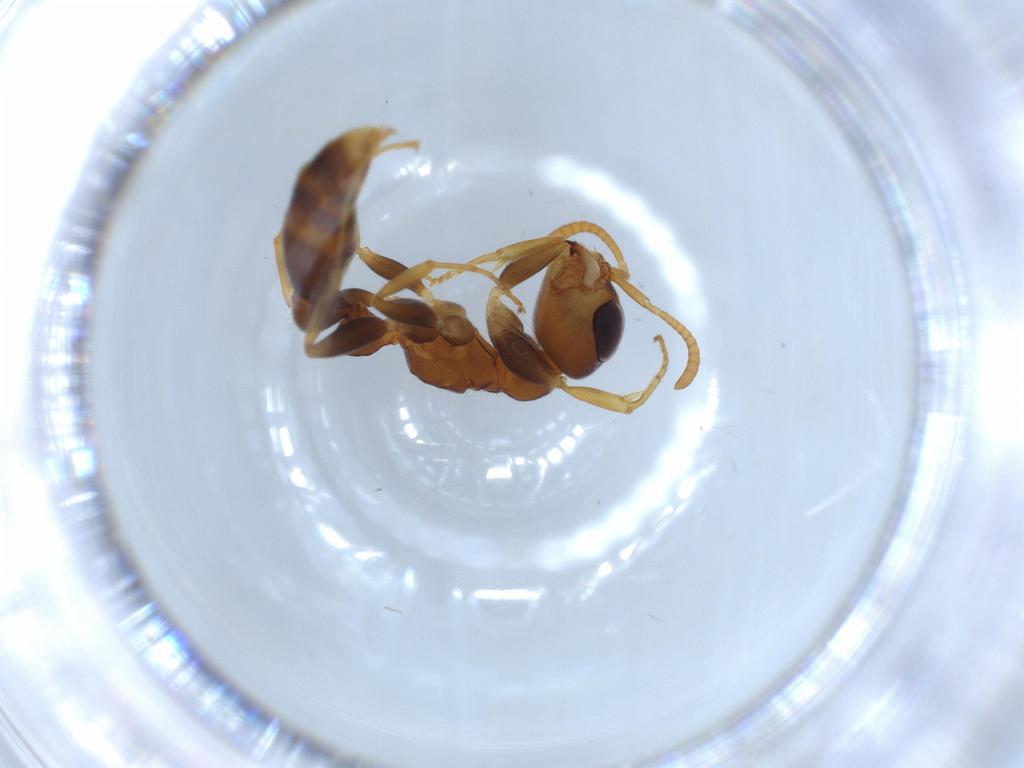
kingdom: Animalia
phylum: Arthropoda
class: Insecta
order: Hymenoptera
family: Formicidae
